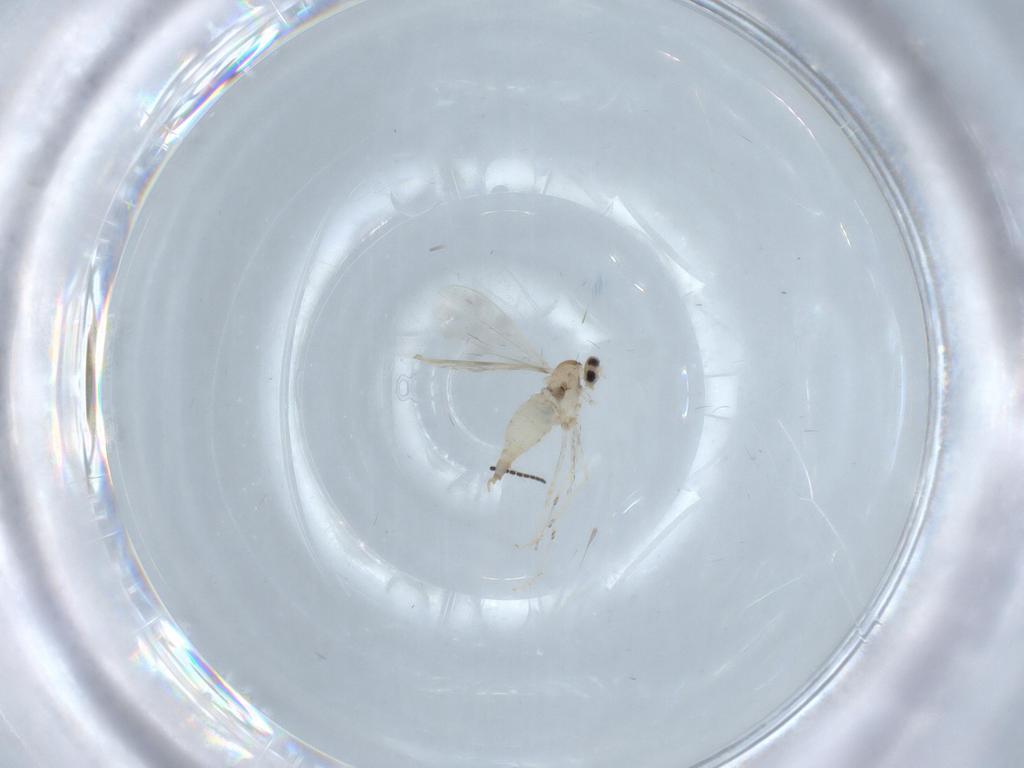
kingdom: Animalia
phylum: Arthropoda
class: Insecta
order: Diptera
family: Cecidomyiidae
